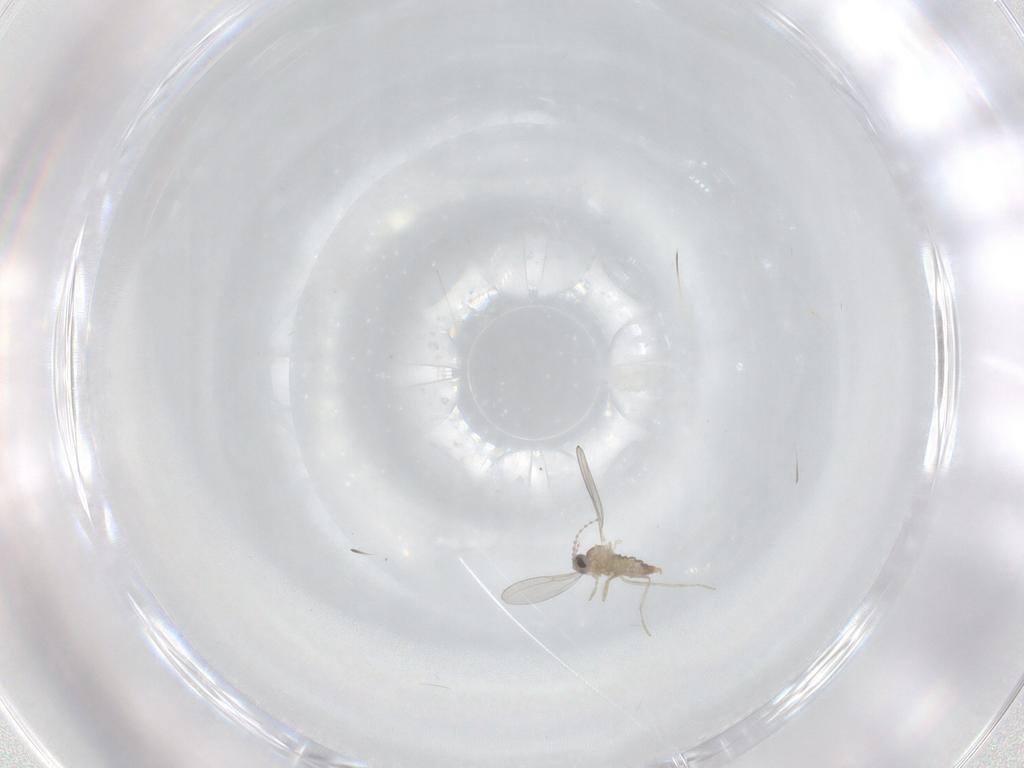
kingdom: Animalia
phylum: Arthropoda
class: Insecta
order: Diptera
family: Cecidomyiidae
